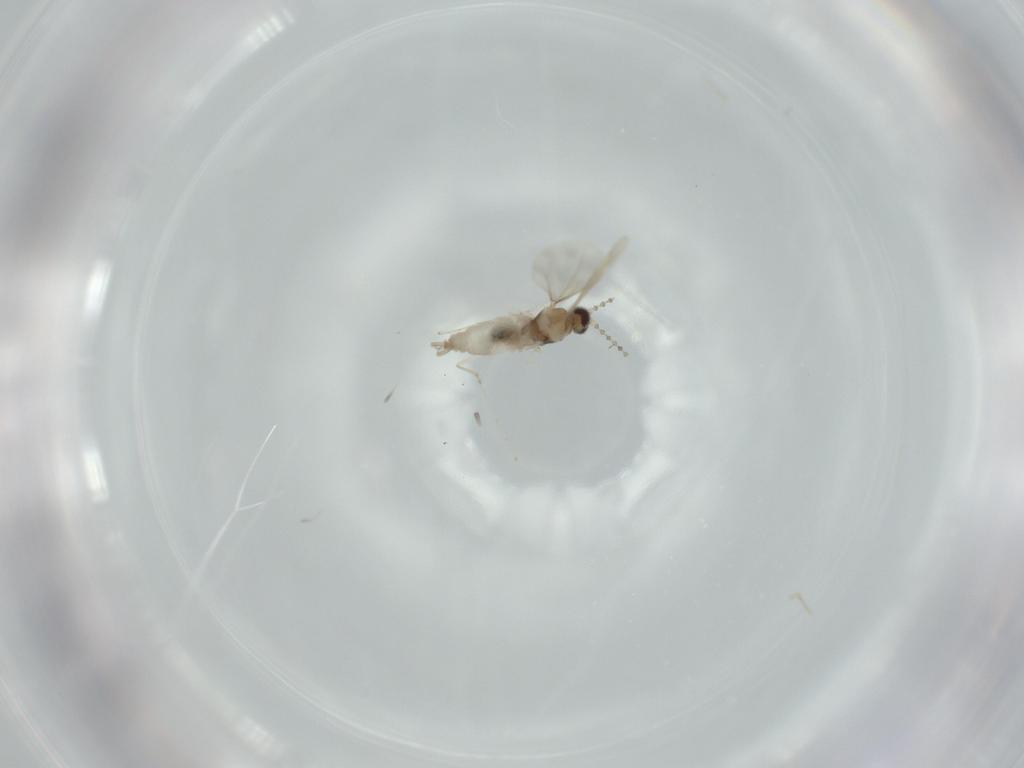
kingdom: Animalia
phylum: Arthropoda
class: Insecta
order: Diptera
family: Cecidomyiidae
